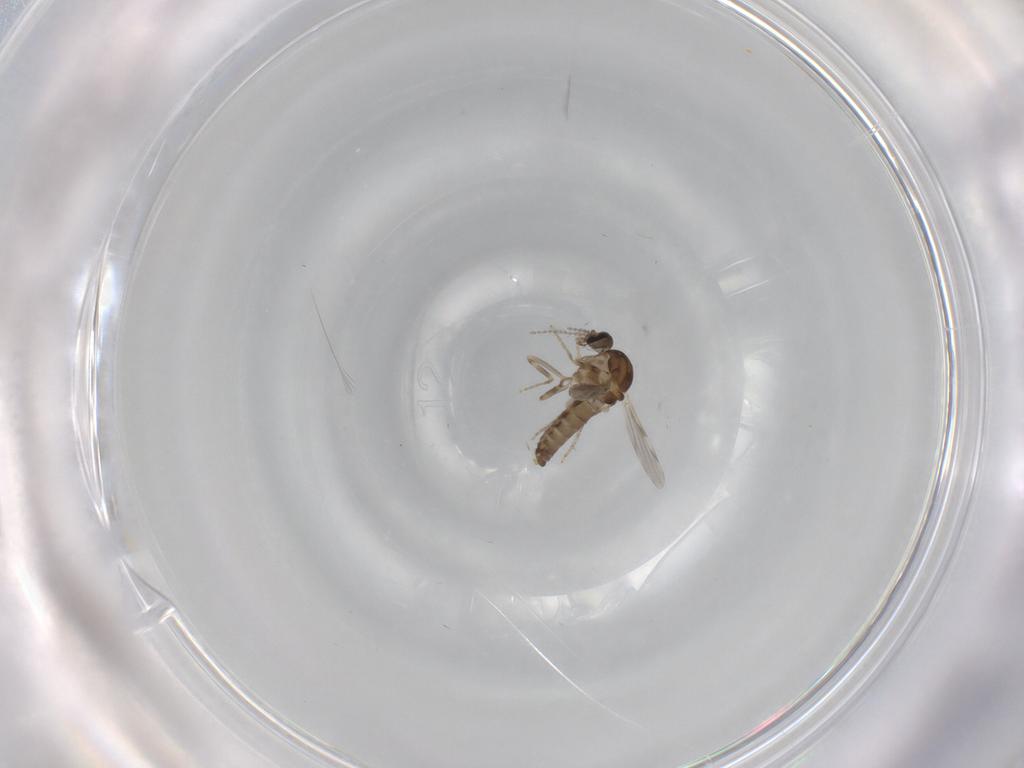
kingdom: Animalia
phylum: Arthropoda
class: Insecta
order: Diptera
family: Ceratopogonidae
